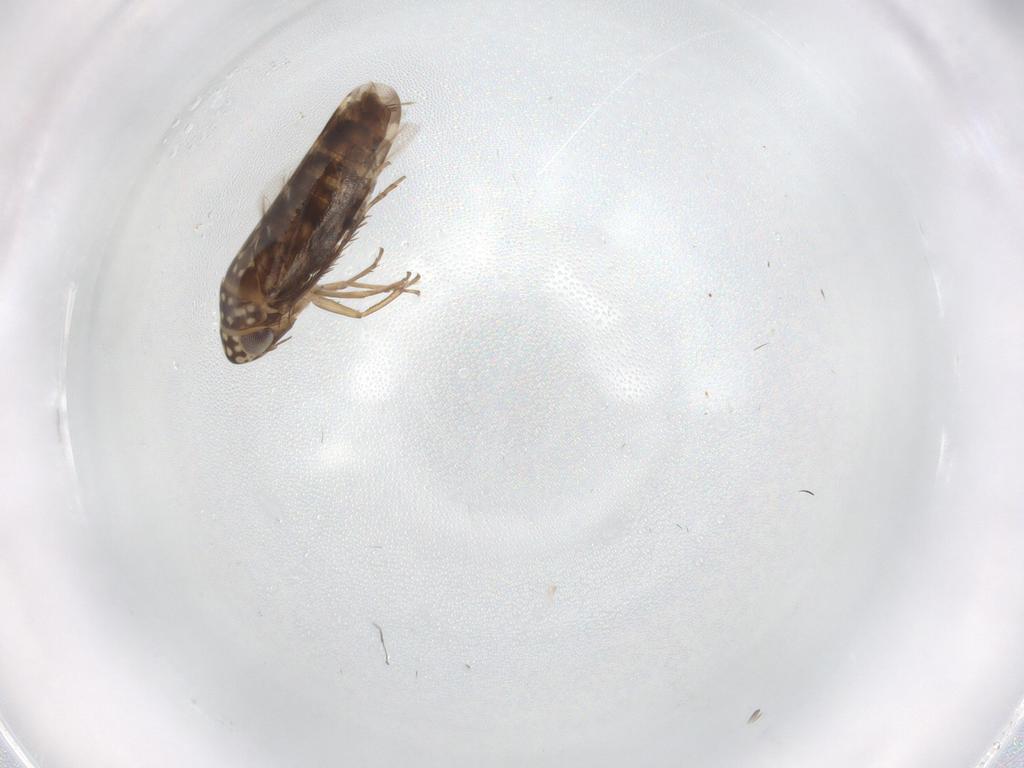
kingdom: Animalia
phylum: Arthropoda
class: Insecta
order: Hemiptera
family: Cicadellidae
